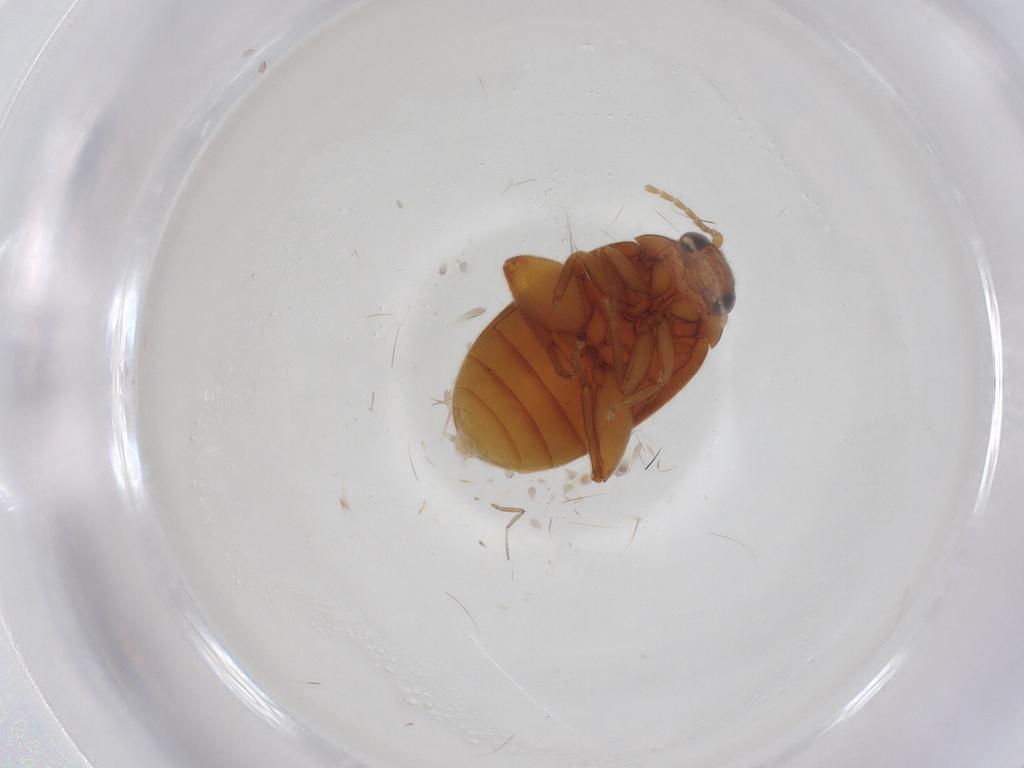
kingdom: Animalia
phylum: Arthropoda
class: Insecta
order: Coleoptera
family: Scirtidae
